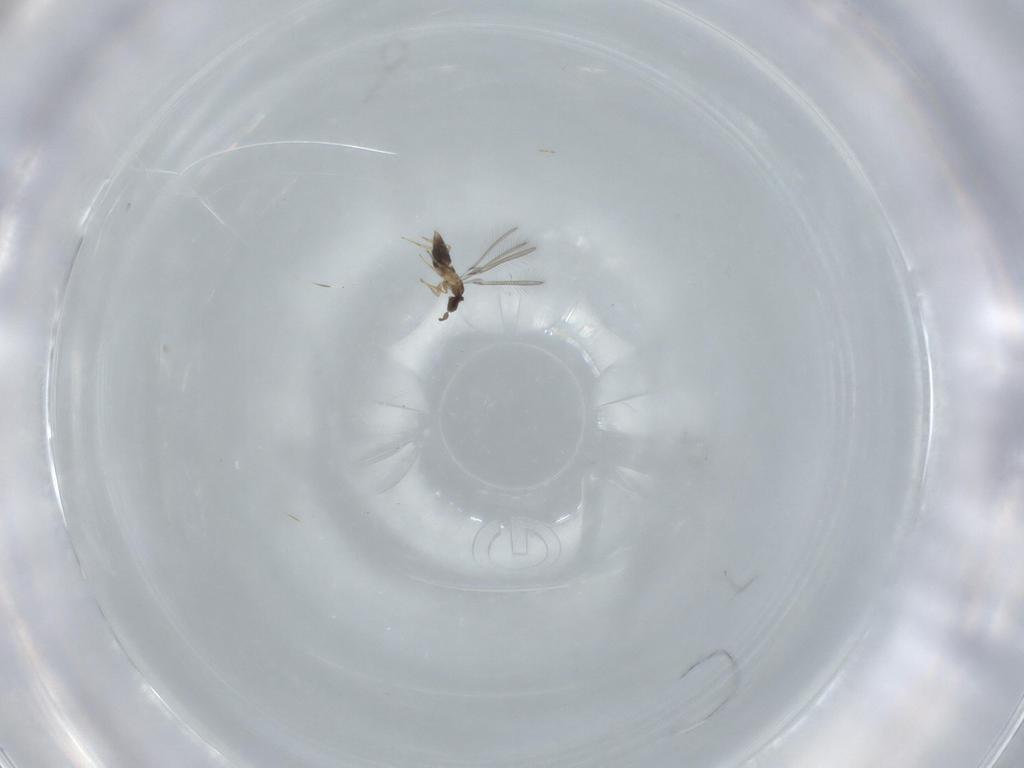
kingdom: Animalia
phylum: Arthropoda
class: Insecta
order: Hymenoptera
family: Mymaridae
